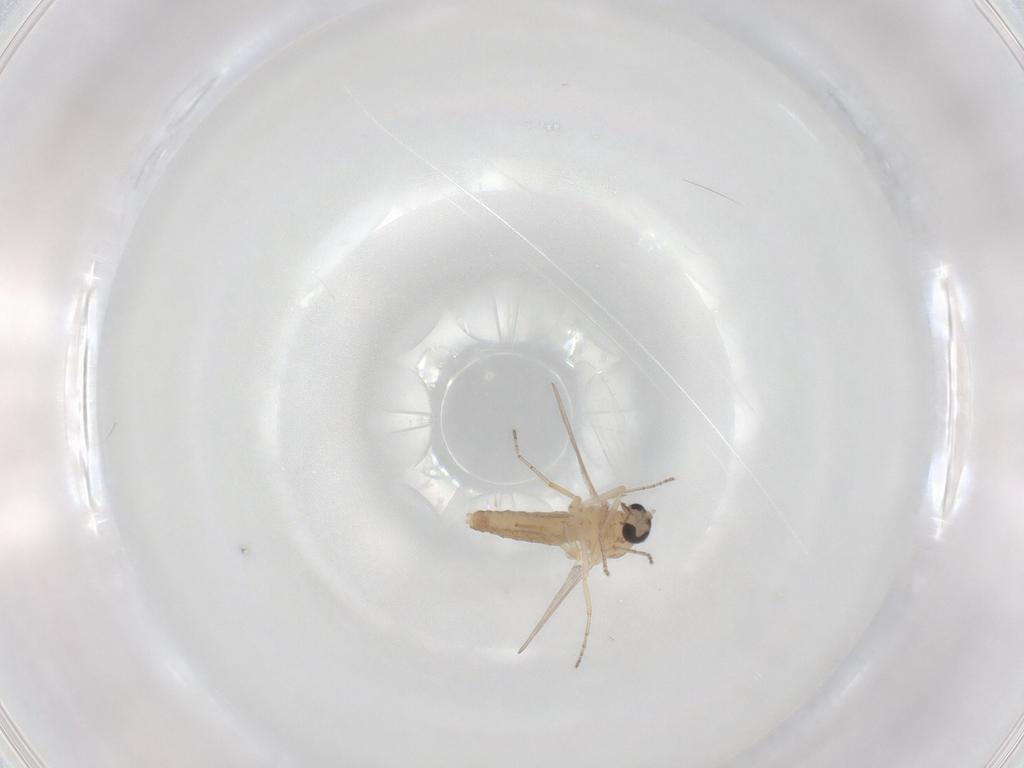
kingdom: Animalia
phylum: Arthropoda
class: Insecta
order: Diptera
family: Ceratopogonidae
